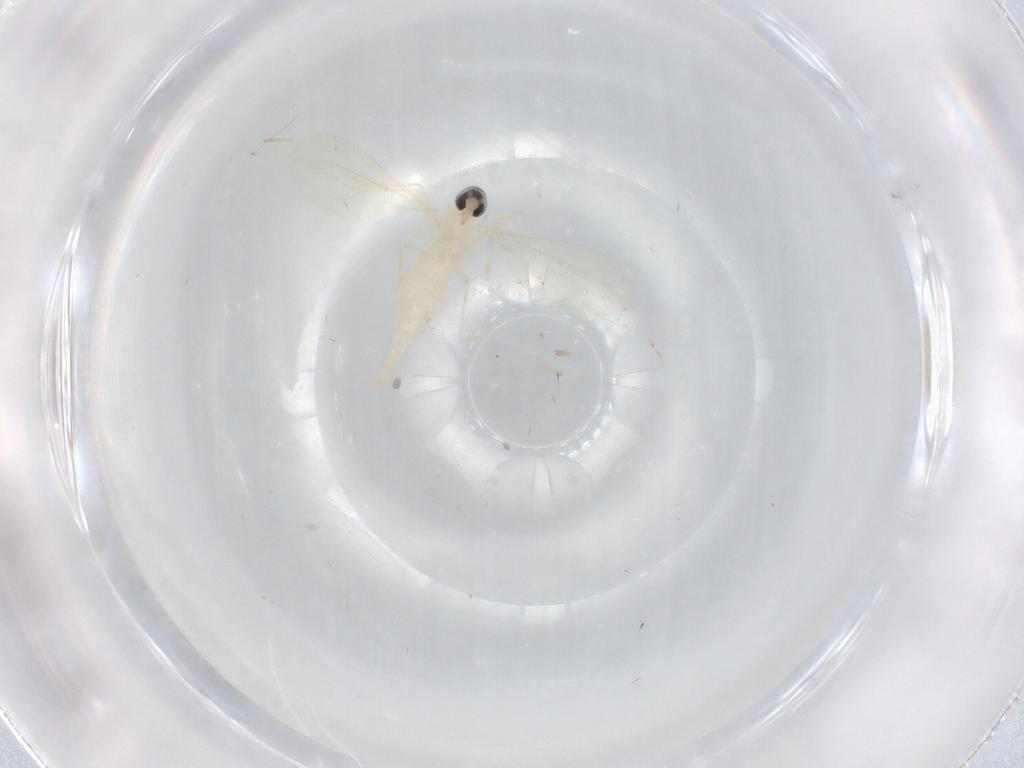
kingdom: Animalia
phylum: Arthropoda
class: Insecta
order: Diptera
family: Cecidomyiidae
